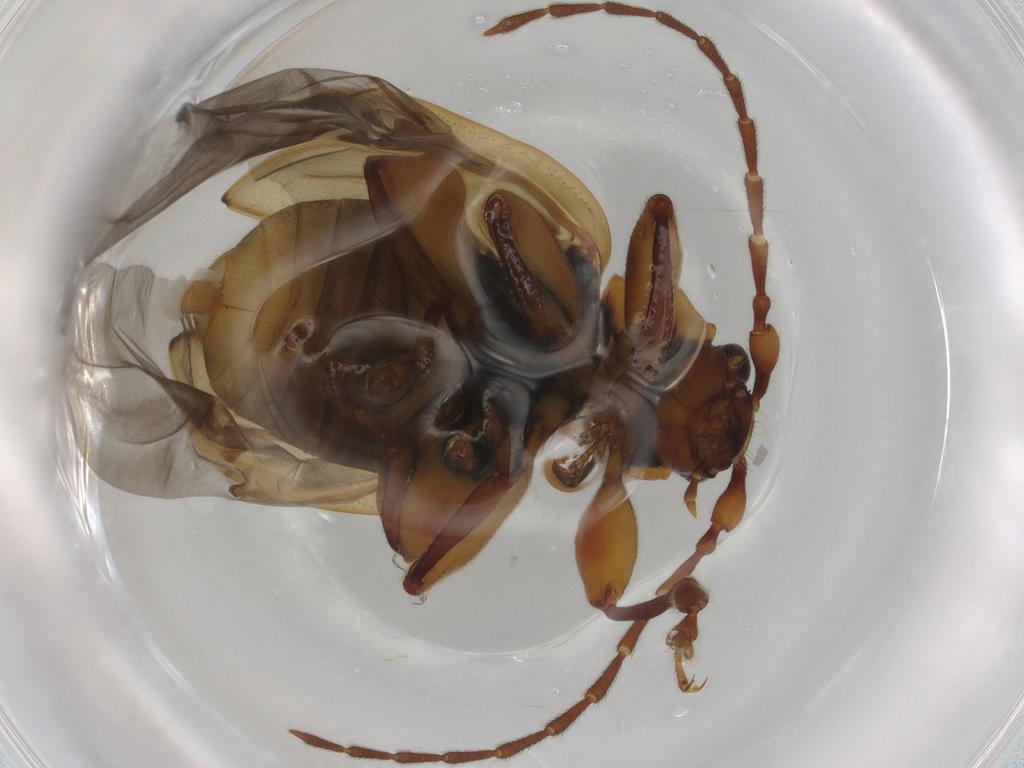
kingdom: Animalia
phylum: Arthropoda
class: Insecta
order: Coleoptera
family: Chrysomelidae
